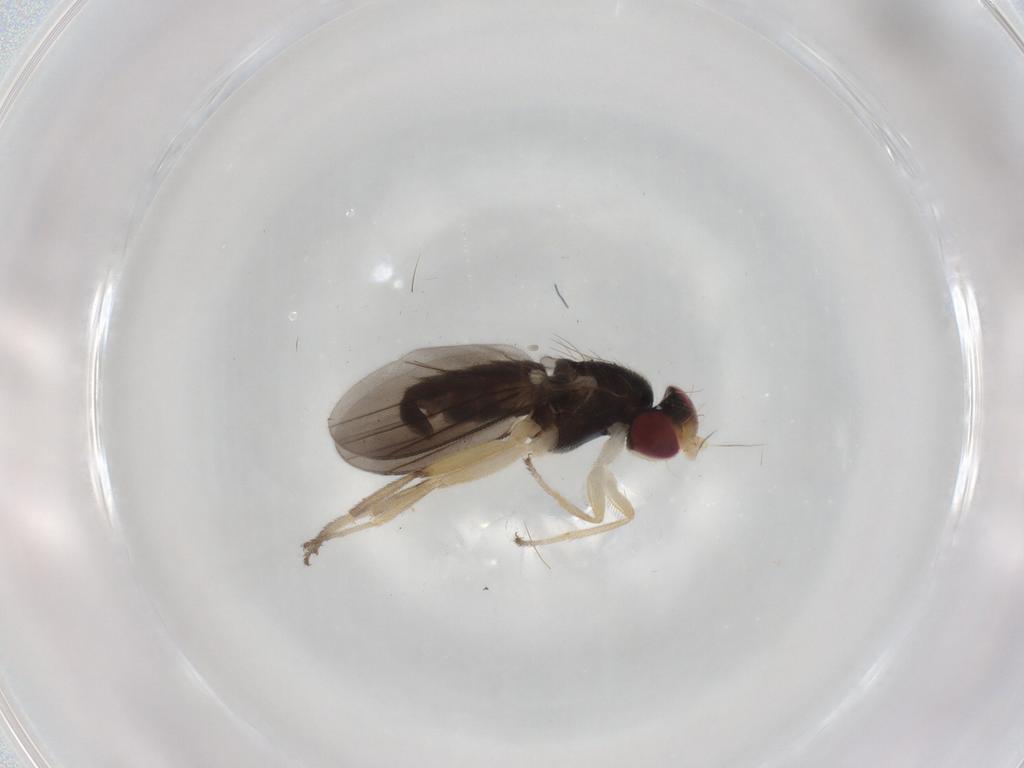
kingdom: Animalia
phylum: Arthropoda
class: Insecta
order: Diptera
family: Clusiidae
